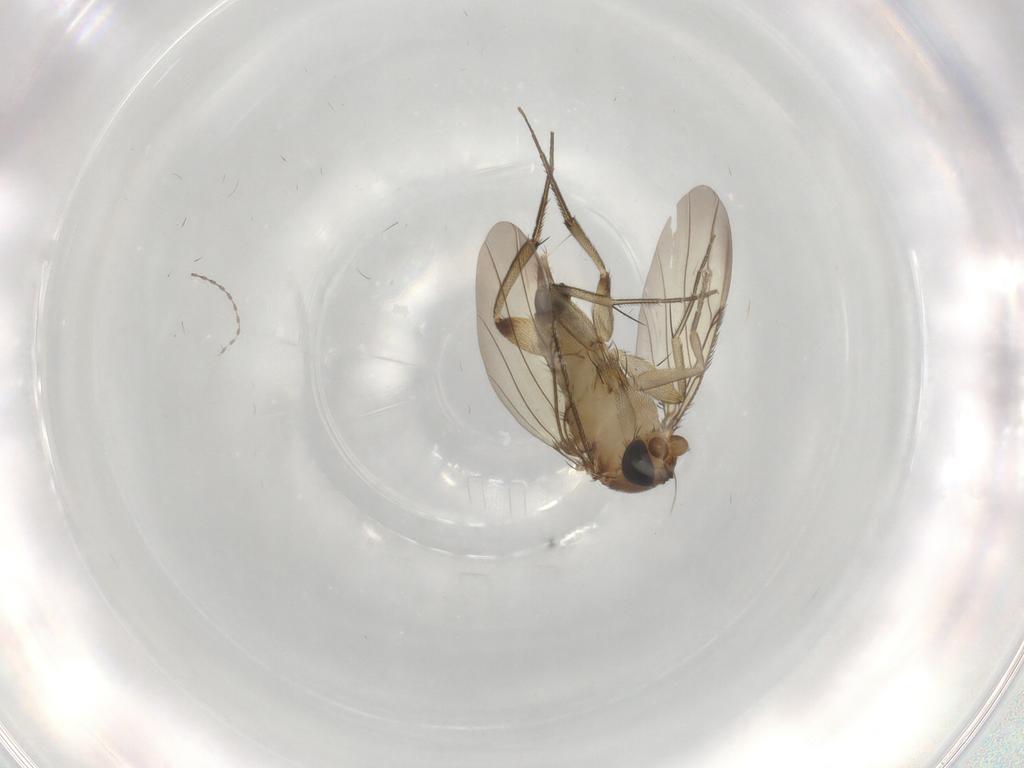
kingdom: Animalia
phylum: Arthropoda
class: Insecta
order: Diptera
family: Phoridae
